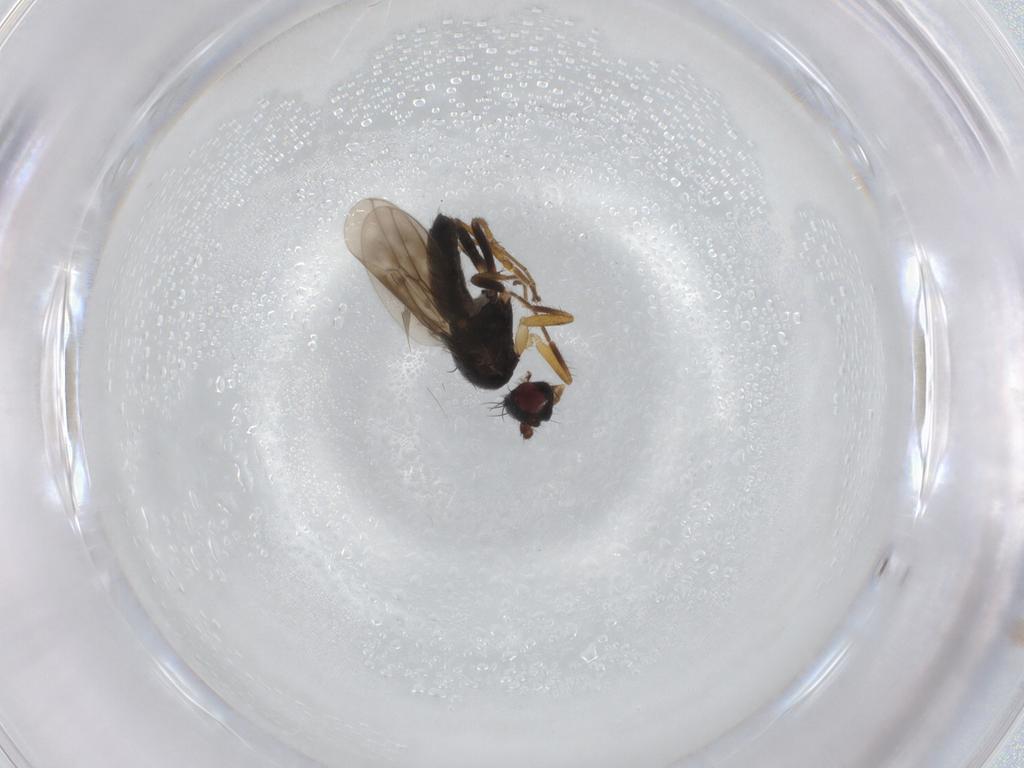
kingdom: Animalia
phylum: Arthropoda
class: Insecta
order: Diptera
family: Sphaeroceridae
